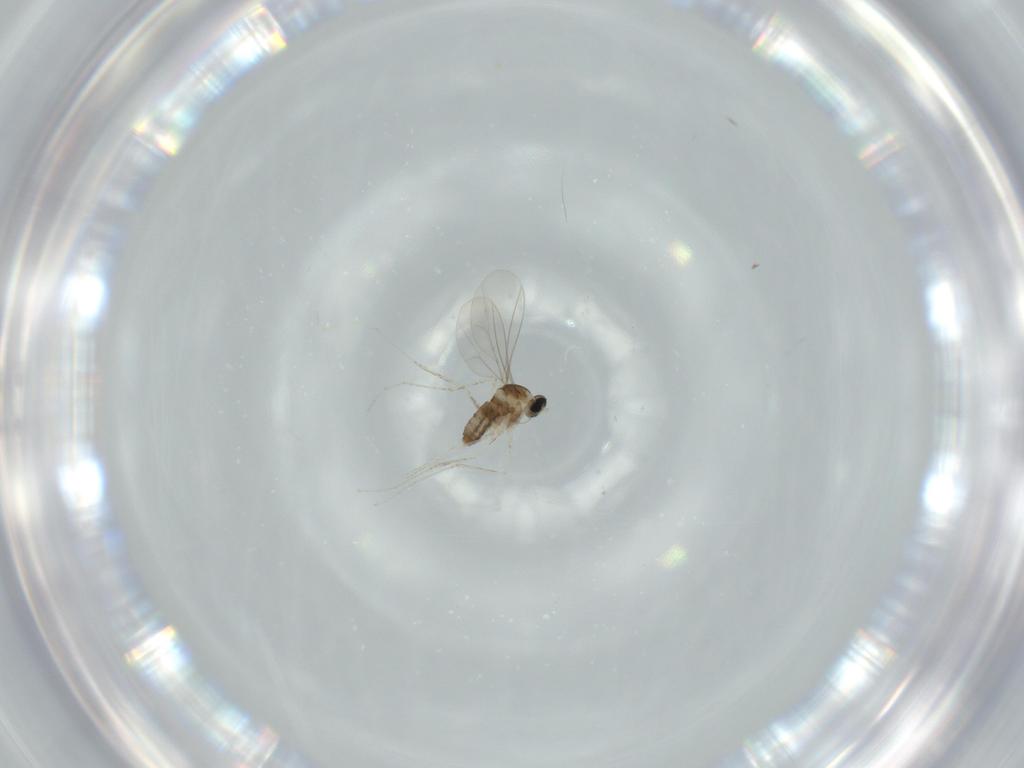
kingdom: Animalia
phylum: Arthropoda
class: Insecta
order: Diptera
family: Cecidomyiidae
